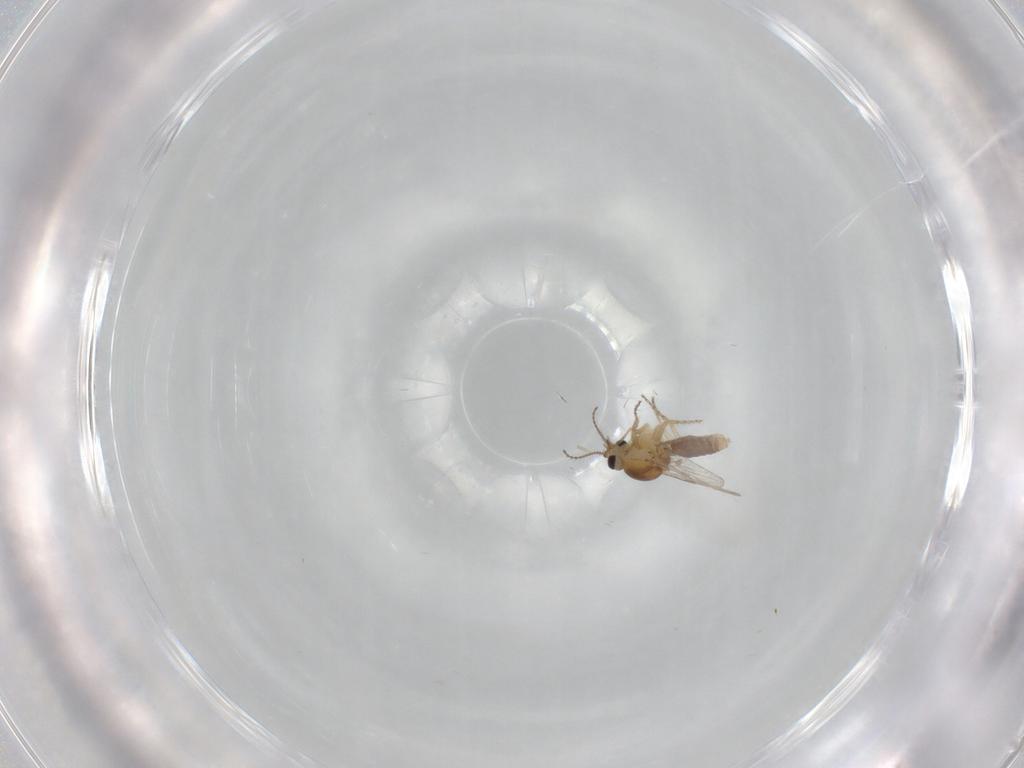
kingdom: Animalia
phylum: Arthropoda
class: Insecta
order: Diptera
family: Ceratopogonidae
